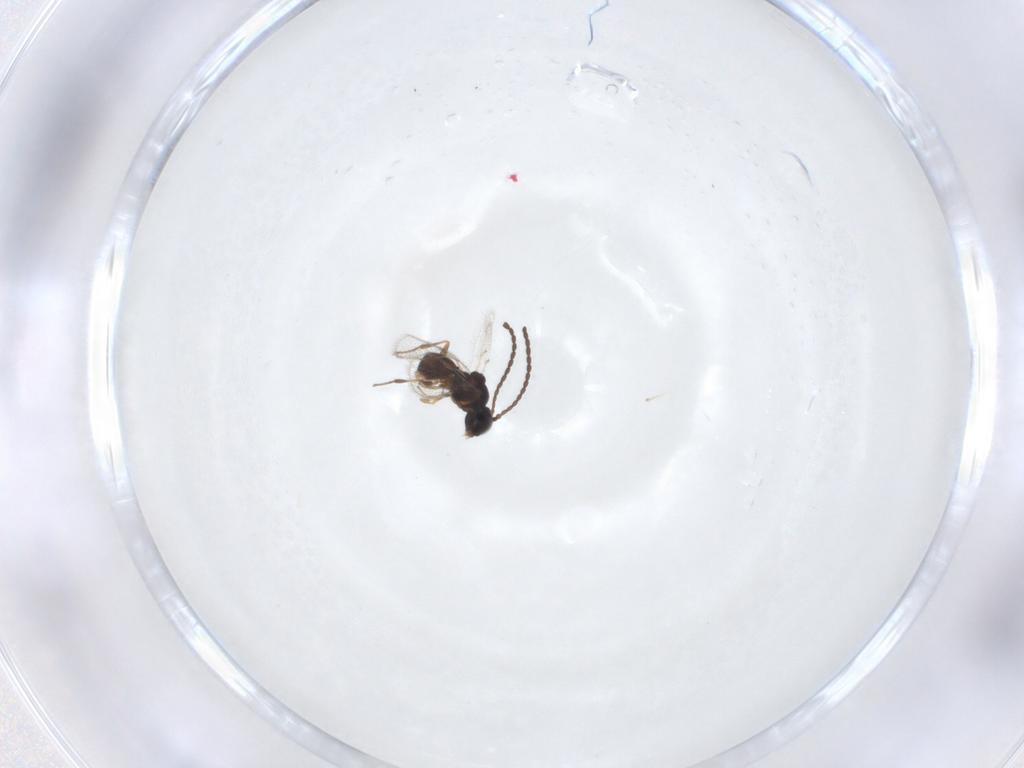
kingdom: Animalia
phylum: Arthropoda
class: Insecta
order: Hymenoptera
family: Figitidae
